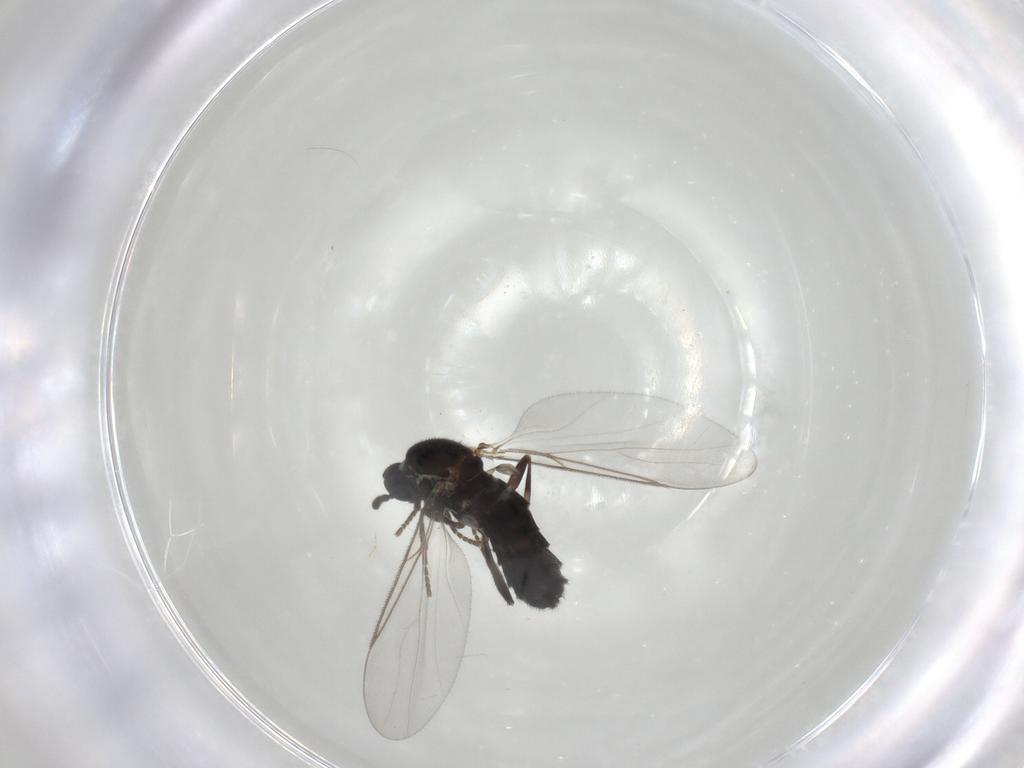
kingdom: Animalia
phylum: Arthropoda
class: Insecta
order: Diptera
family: Scatopsidae
